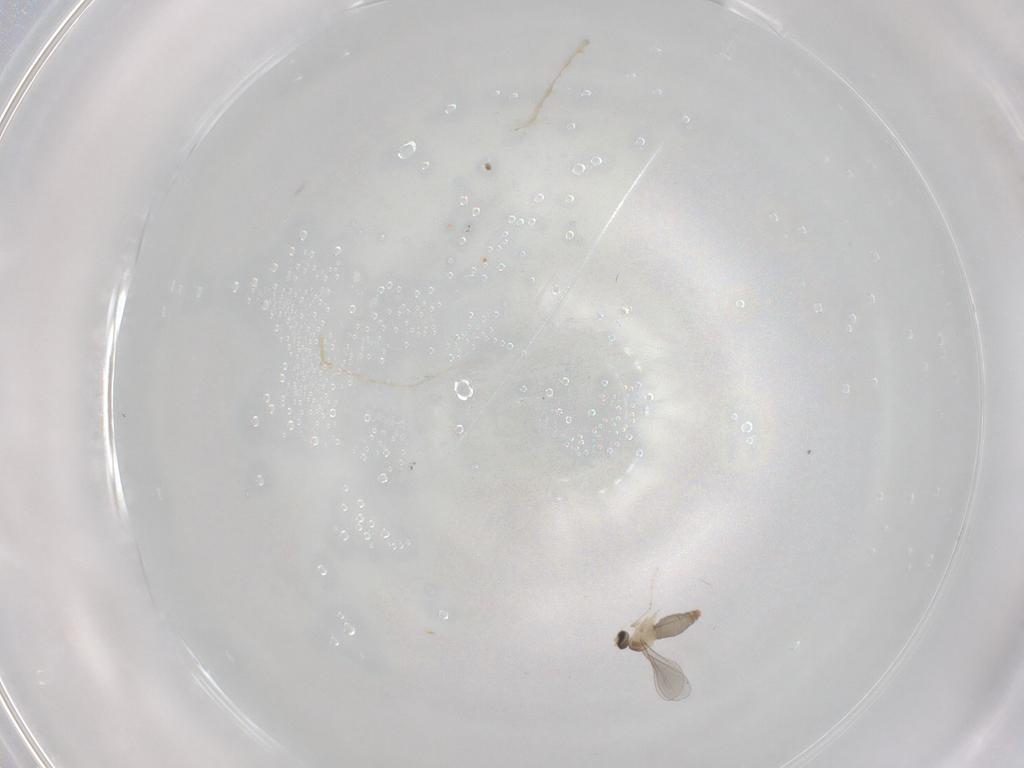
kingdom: Animalia
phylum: Arthropoda
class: Insecta
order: Diptera
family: Cecidomyiidae
